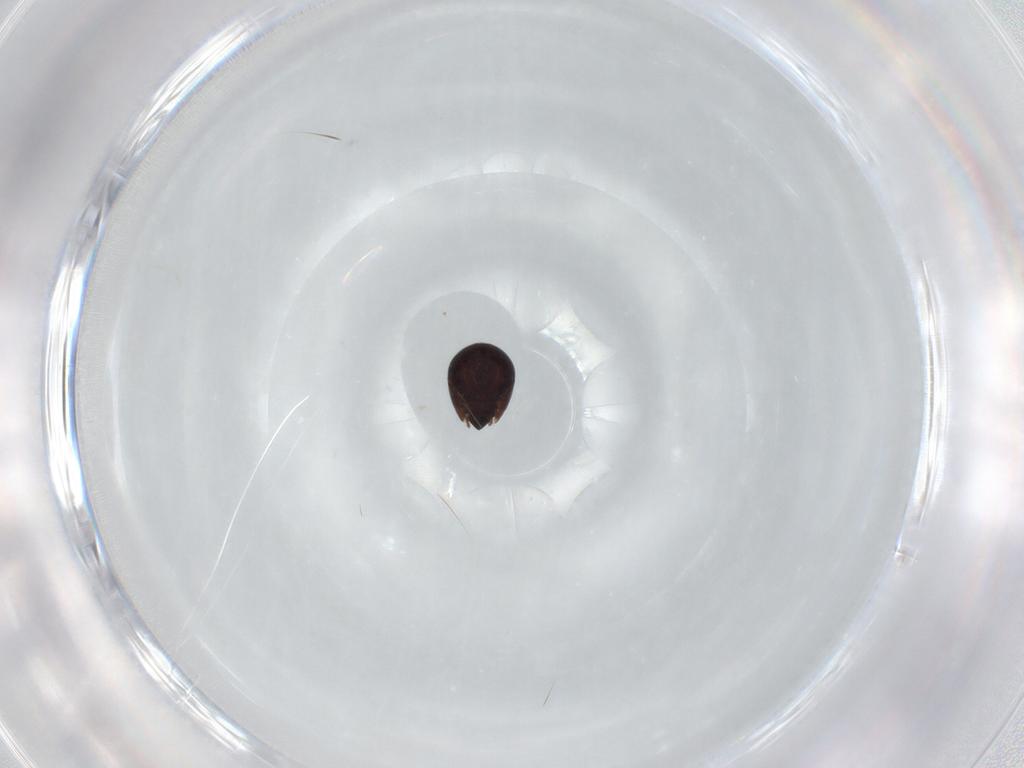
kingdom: Animalia
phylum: Arthropoda
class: Arachnida
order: Sarcoptiformes
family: Ceratozetidae
